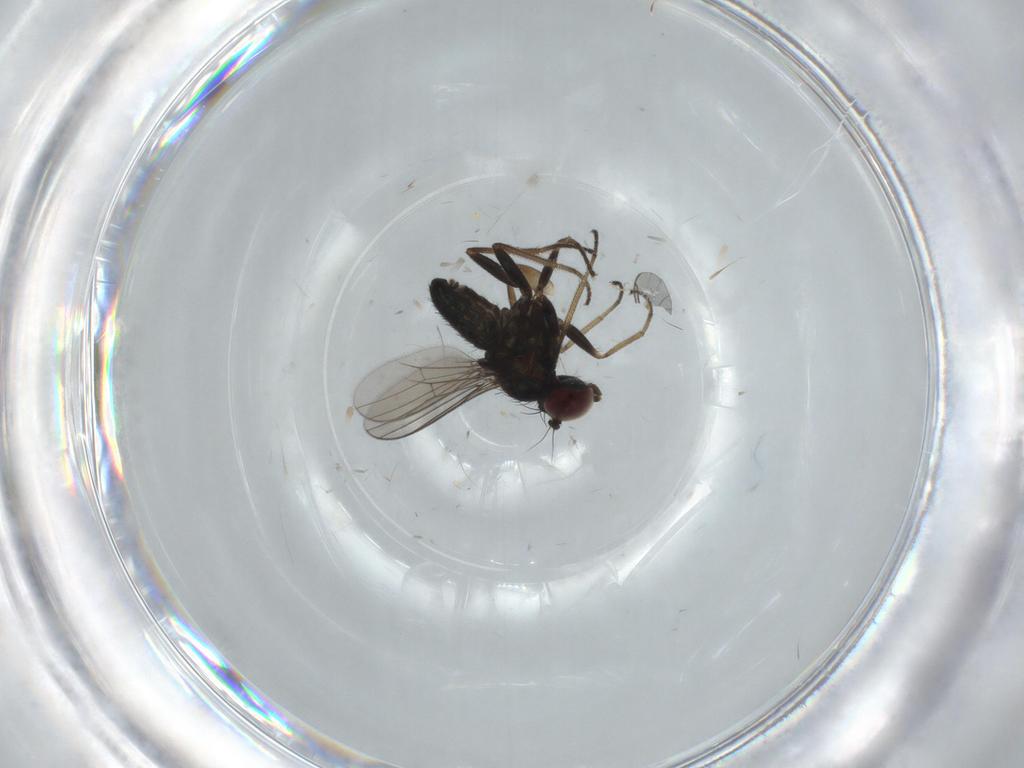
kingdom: Animalia
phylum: Arthropoda
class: Insecta
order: Diptera
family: Dolichopodidae
